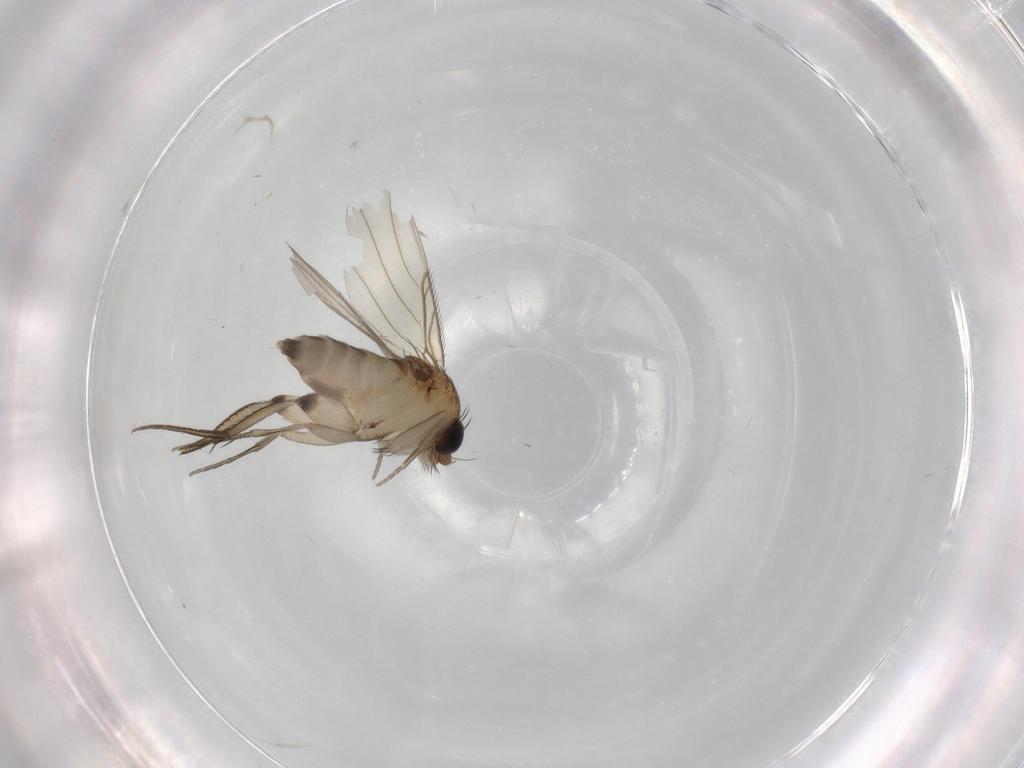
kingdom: Animalia
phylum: Arthropoda
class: Insecta
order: Diptera
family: Phoridae
